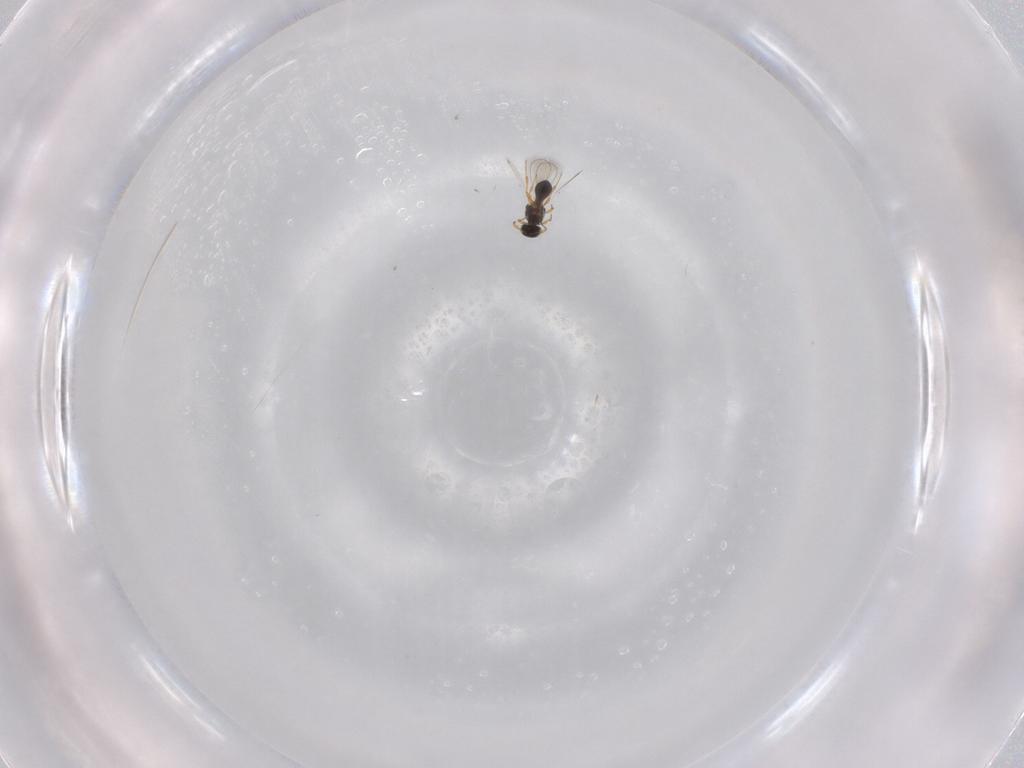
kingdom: Animalia
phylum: Arthropoda
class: Insecta
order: Hymenoptera
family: Platygastridae
